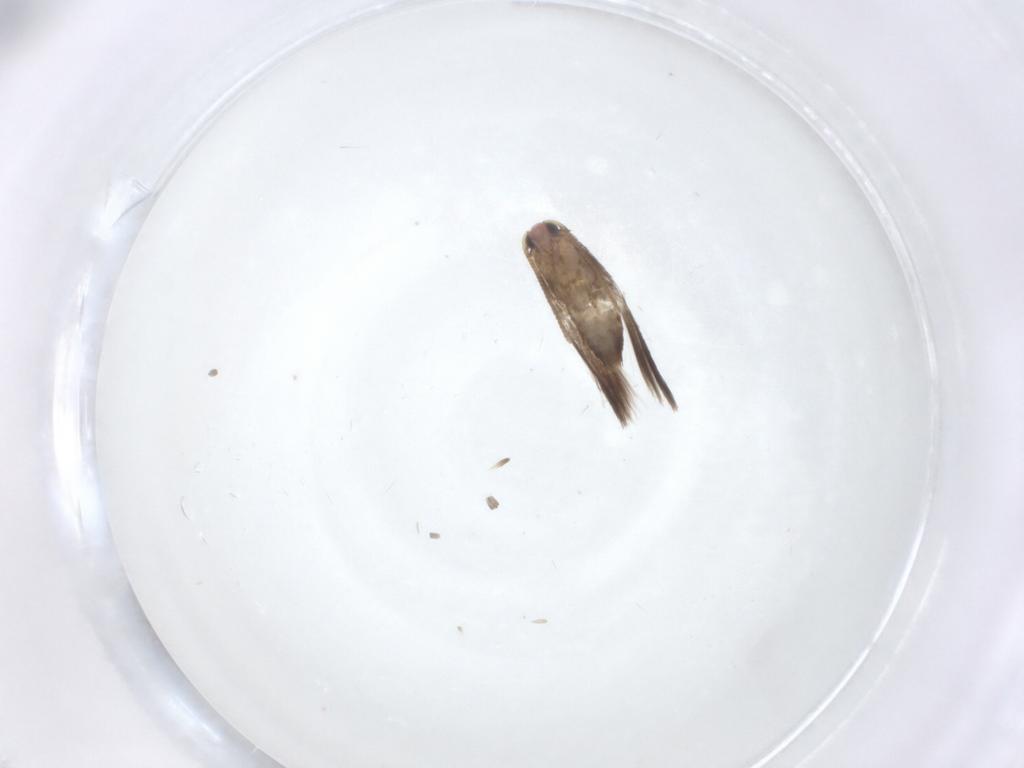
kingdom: Animalia
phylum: Arthropoda
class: Insecta
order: Lepidoptera
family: Nepticulidae
